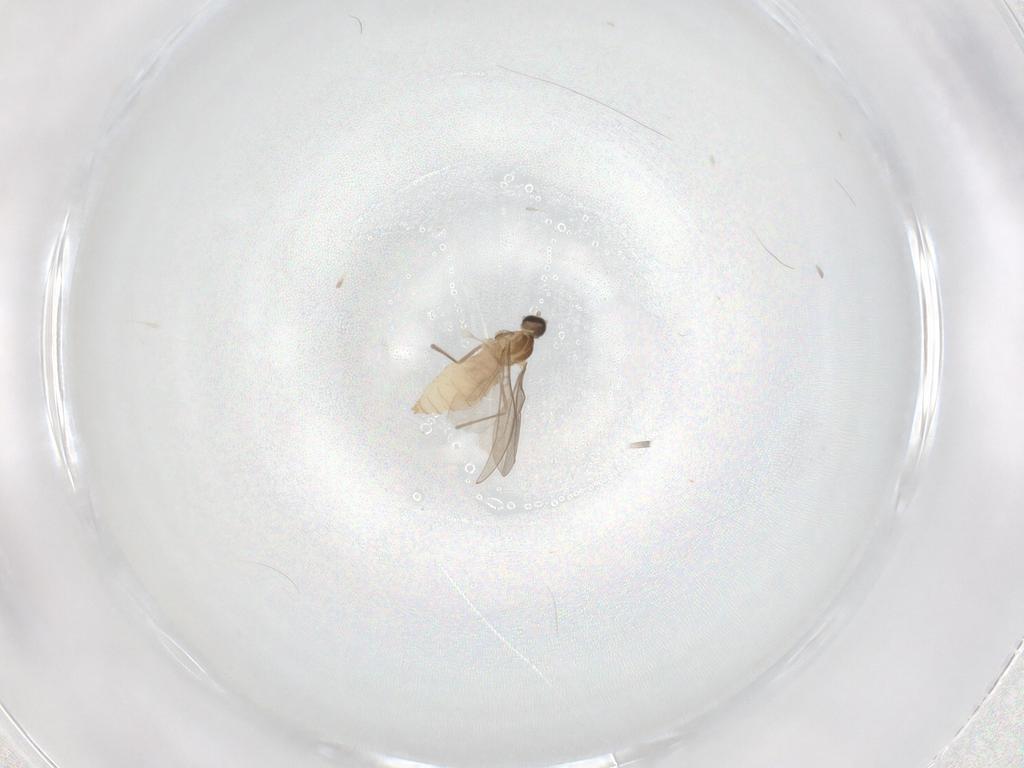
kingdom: Animalia
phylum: Arthropoda
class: Insecta
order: Diptera
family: Cecidomyiidae
